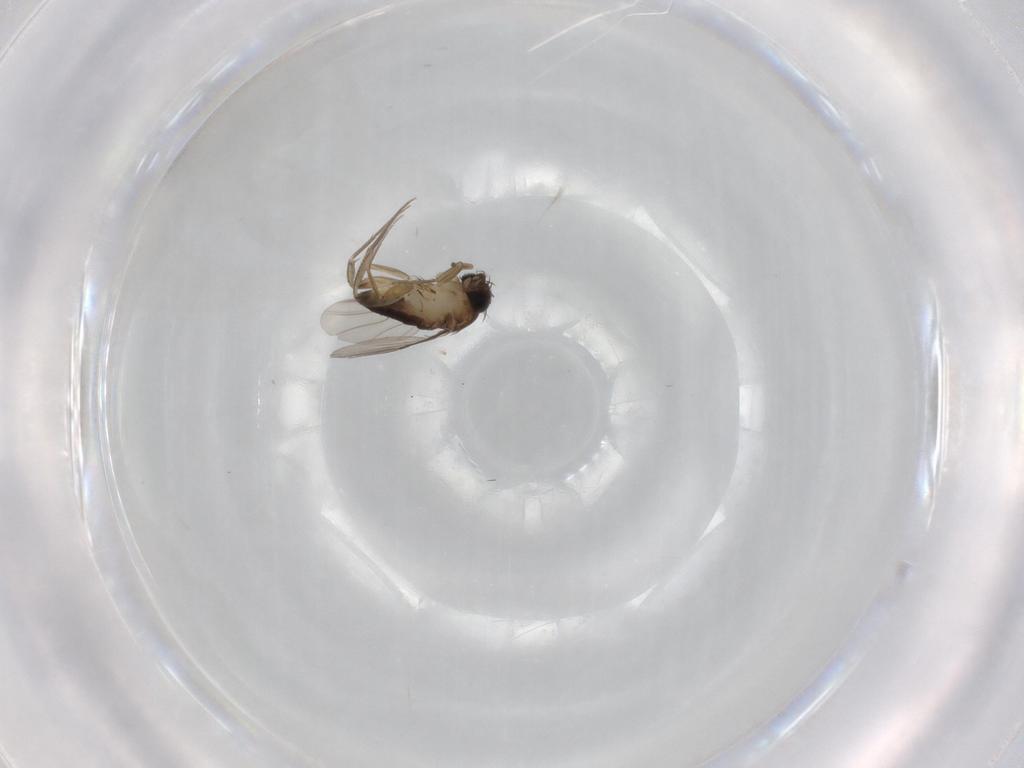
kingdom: Animalia
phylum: Arthropoda
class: Insecta
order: Diptera
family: Phoridae
